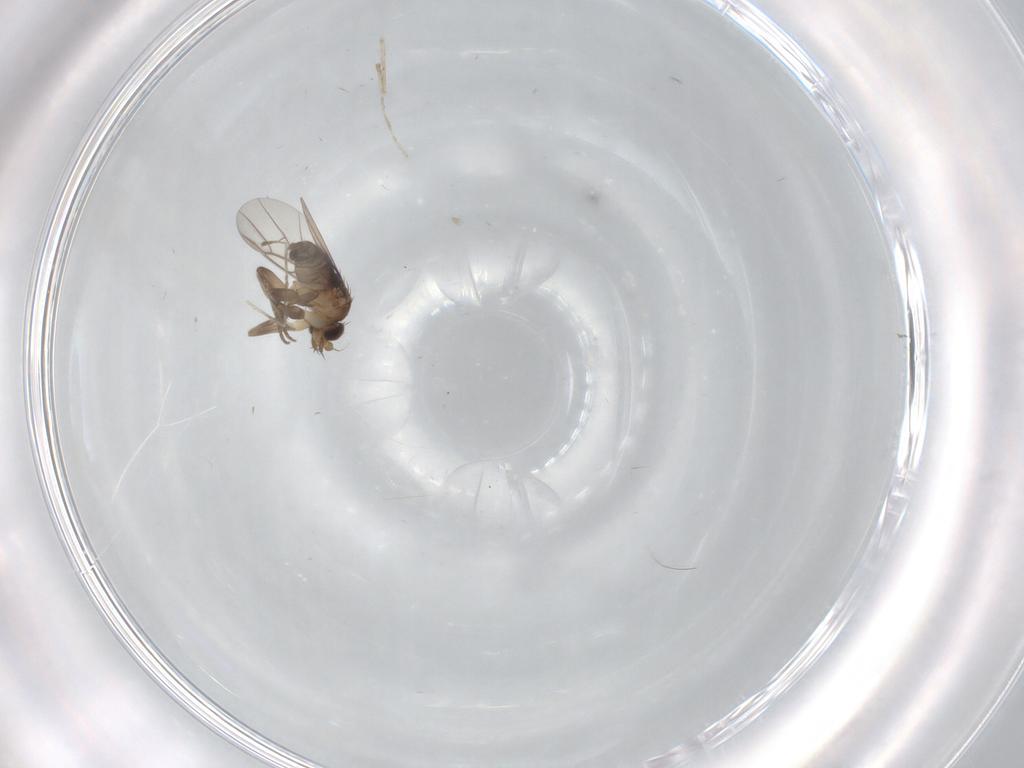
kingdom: Animalia
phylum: Arthropoda
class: Insecta
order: Diptera
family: Cecidomyiidae
